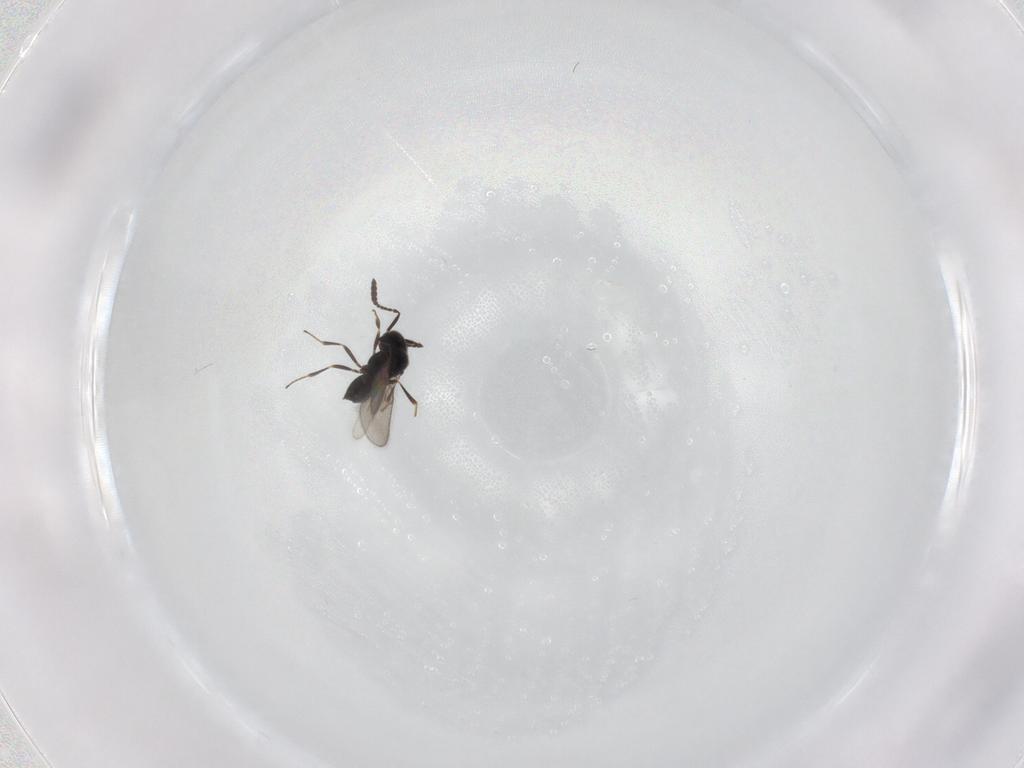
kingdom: Animalia
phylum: Arthropoda
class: Insecta
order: Hymenoptera
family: Scelionidae
